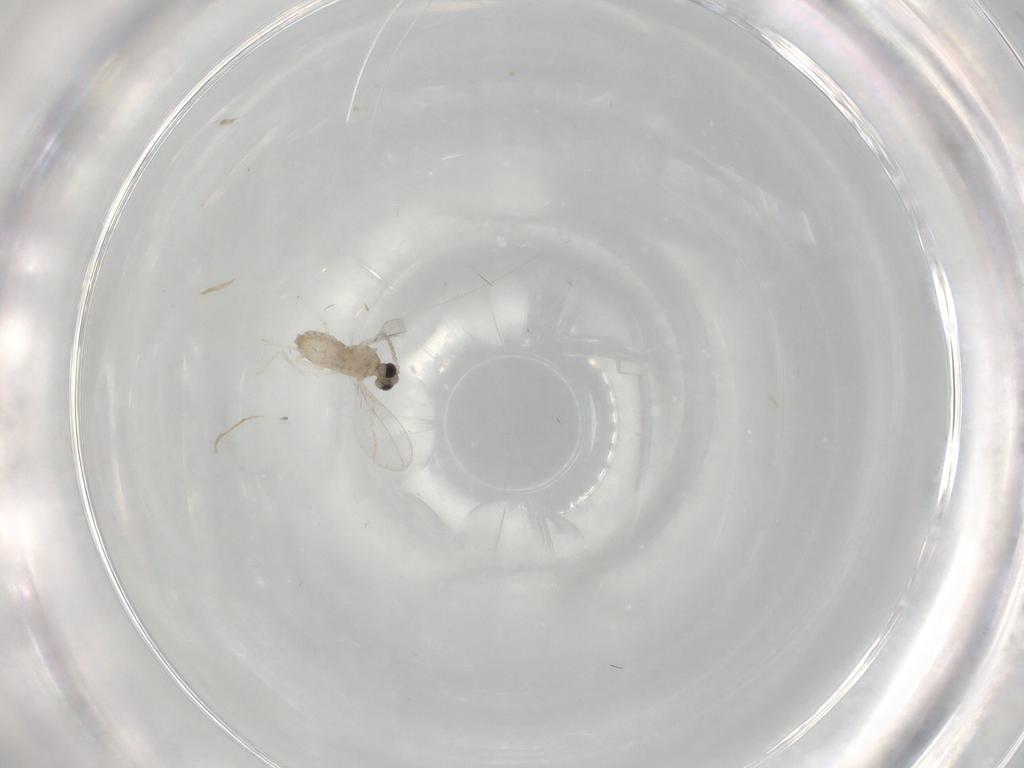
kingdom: Animalia
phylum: Arthropoda
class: Insecta
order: Diptera
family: Cecidomyiidae
